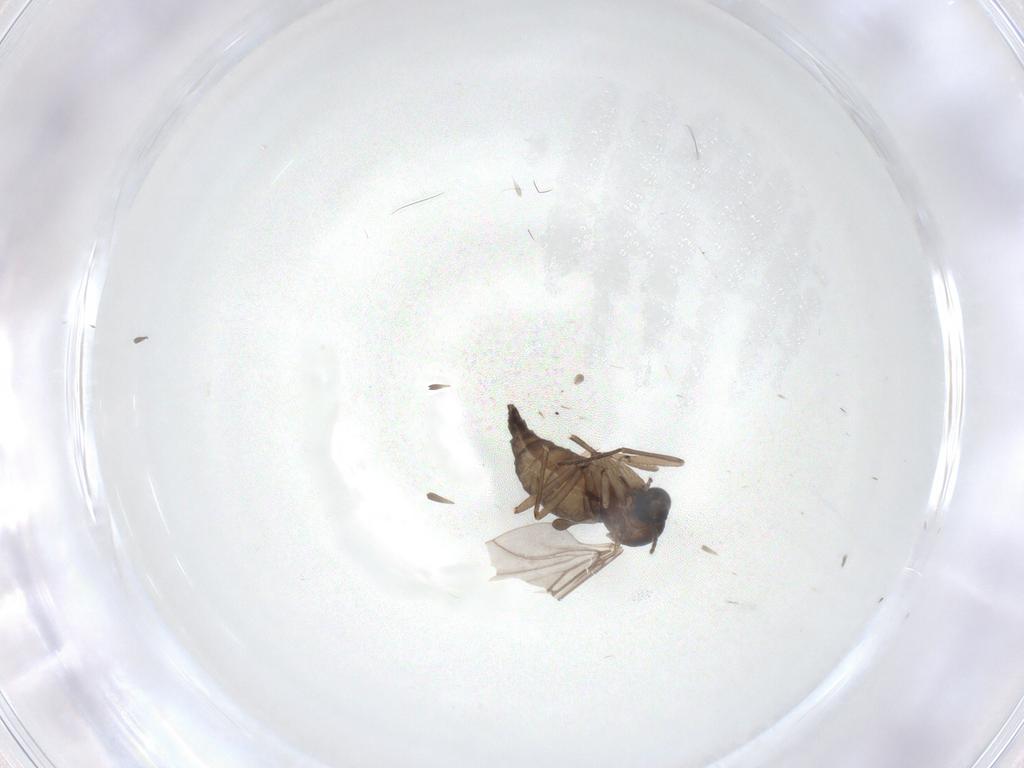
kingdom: Animalia
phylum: Arthropoda
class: Insecta
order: Diptera
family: Sciaridae
